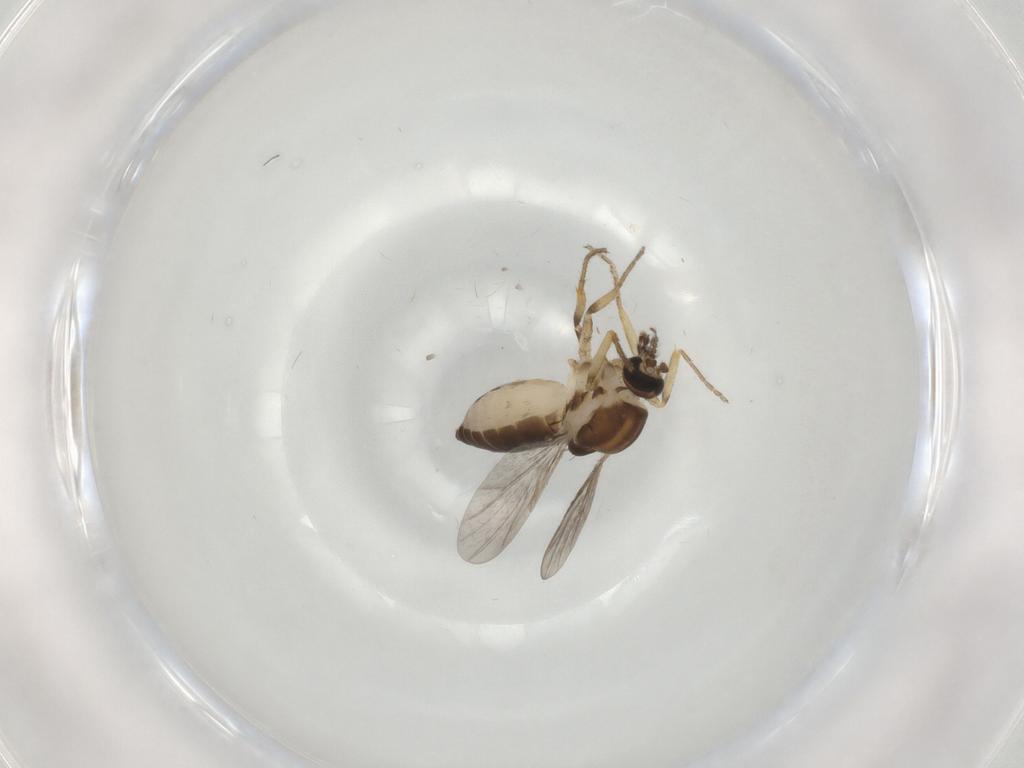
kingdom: Animalia
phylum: Arthropoda
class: Insecta
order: Diptera
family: Ceratopogonidae
